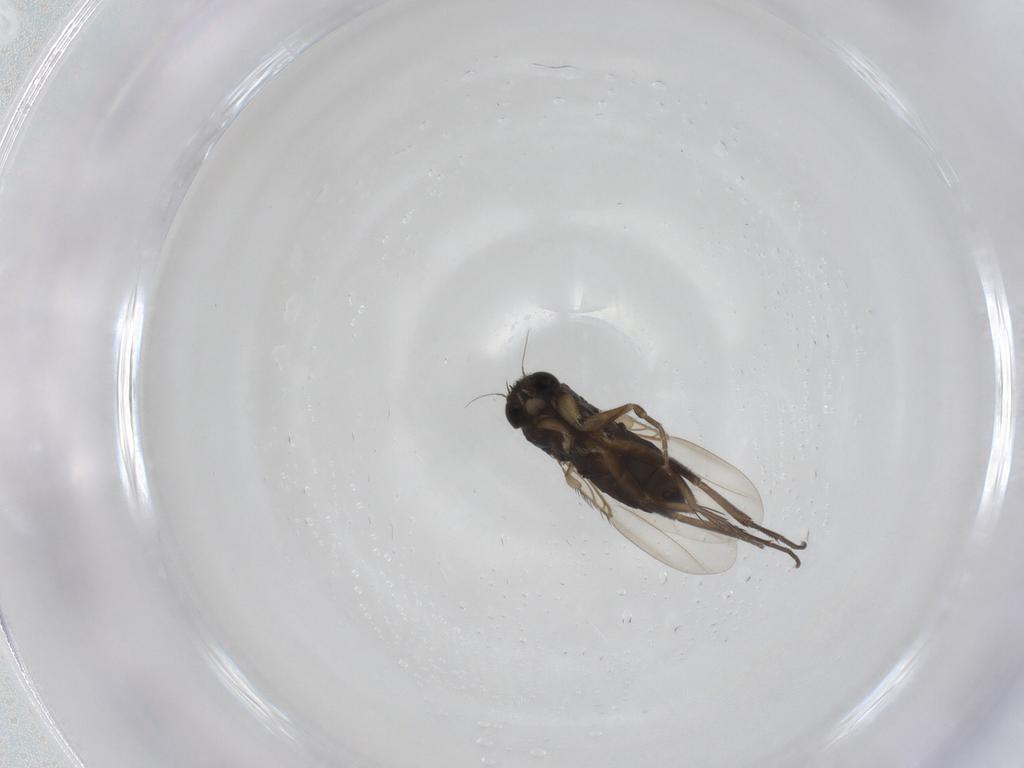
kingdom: Animalia
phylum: Arthropoda
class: Insecta
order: Diptera
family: Phoridae
